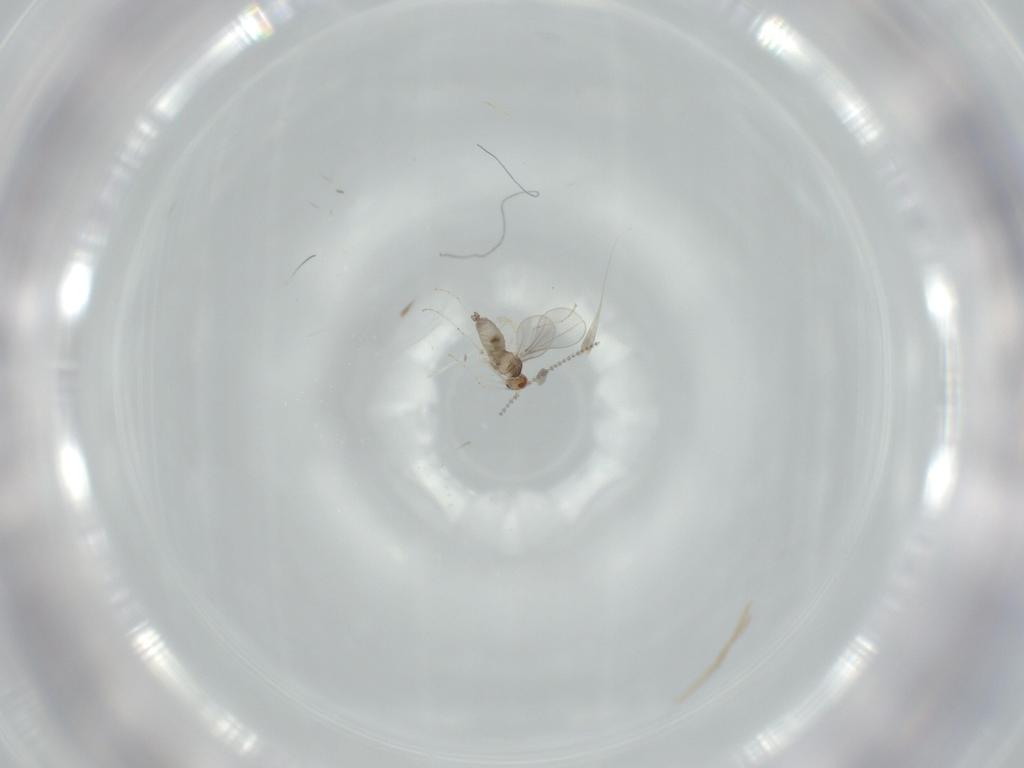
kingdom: Animalia
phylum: Arthropoda
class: Insecta
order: Diptera
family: Cecidomyiidae
